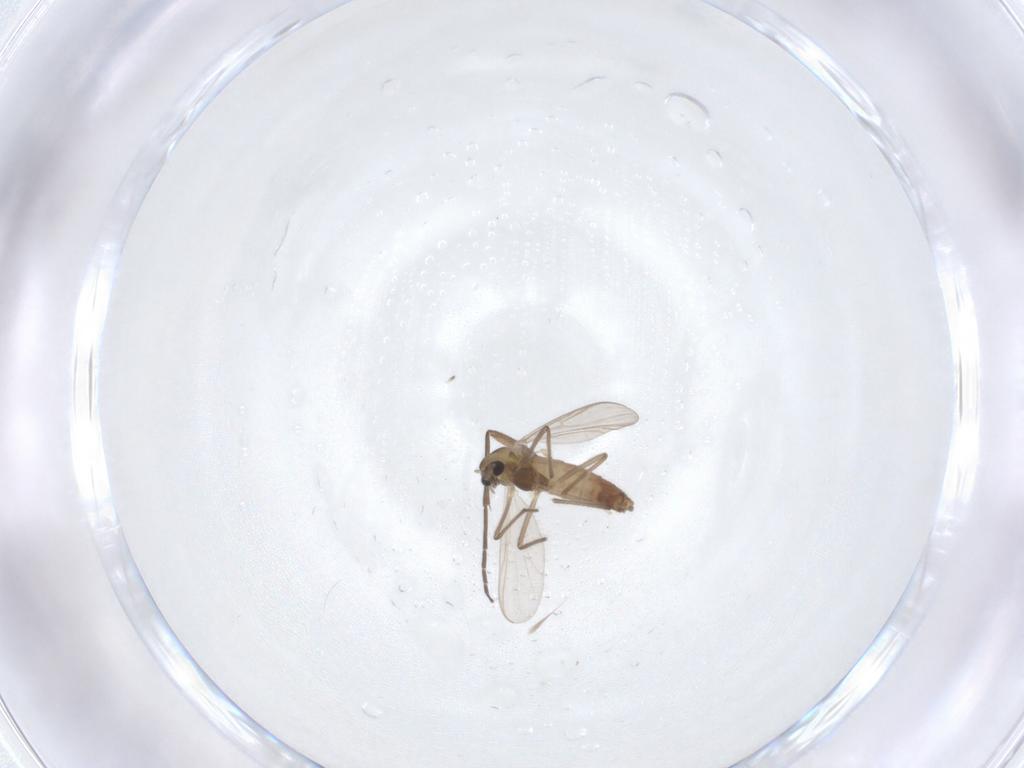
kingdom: Animalia
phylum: Arthropoda
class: Insecta
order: Diptera
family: Chironomidae
